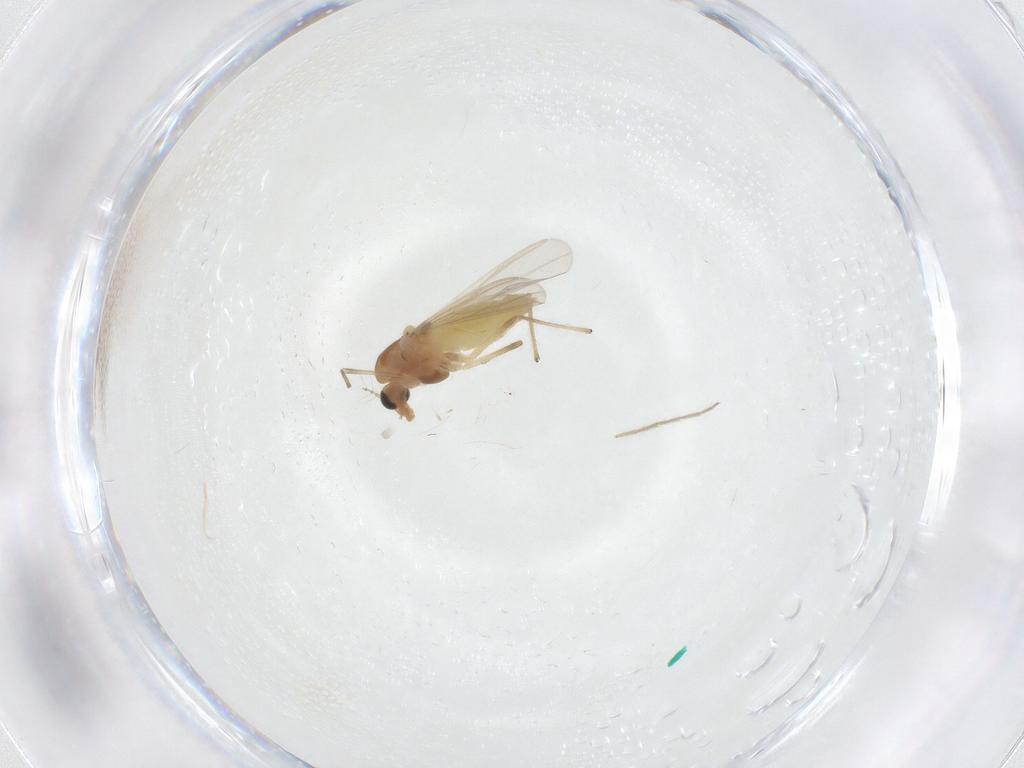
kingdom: Animalia
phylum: Arthropoda
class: Insecta
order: Diptera
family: Chironomidae
